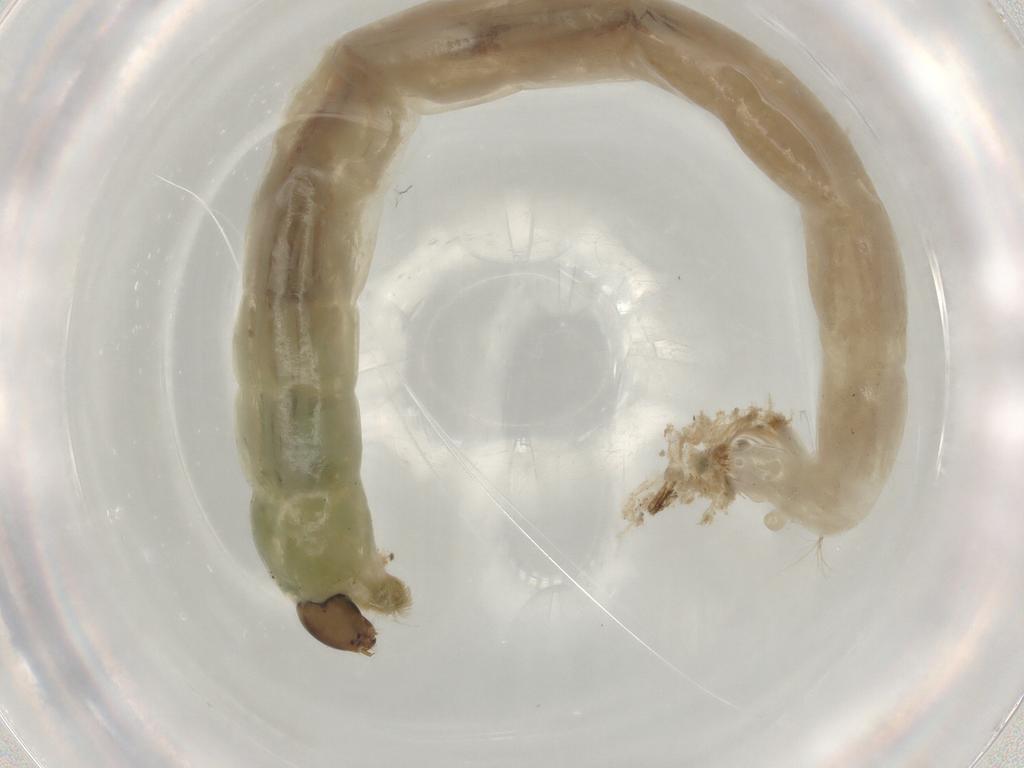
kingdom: Animalia
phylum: Arthropoda
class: Insecta
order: Diptera
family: Chironomidae
